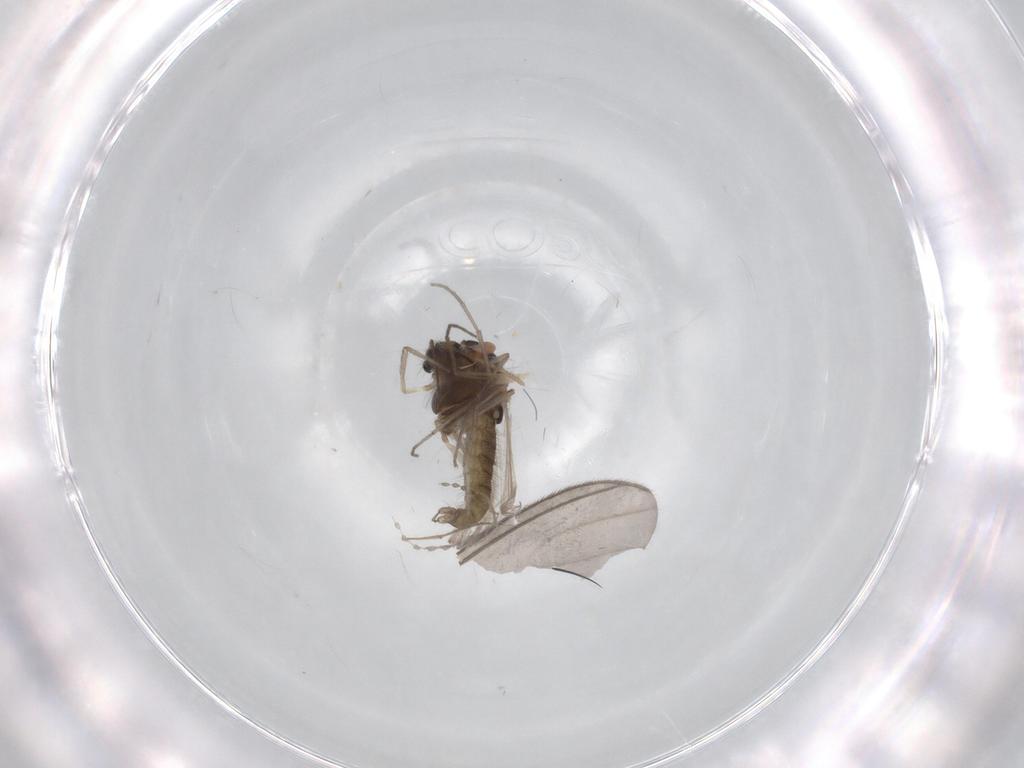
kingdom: Animalia
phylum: Arthropoda
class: Insecta
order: Diptera
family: Chironomidae
